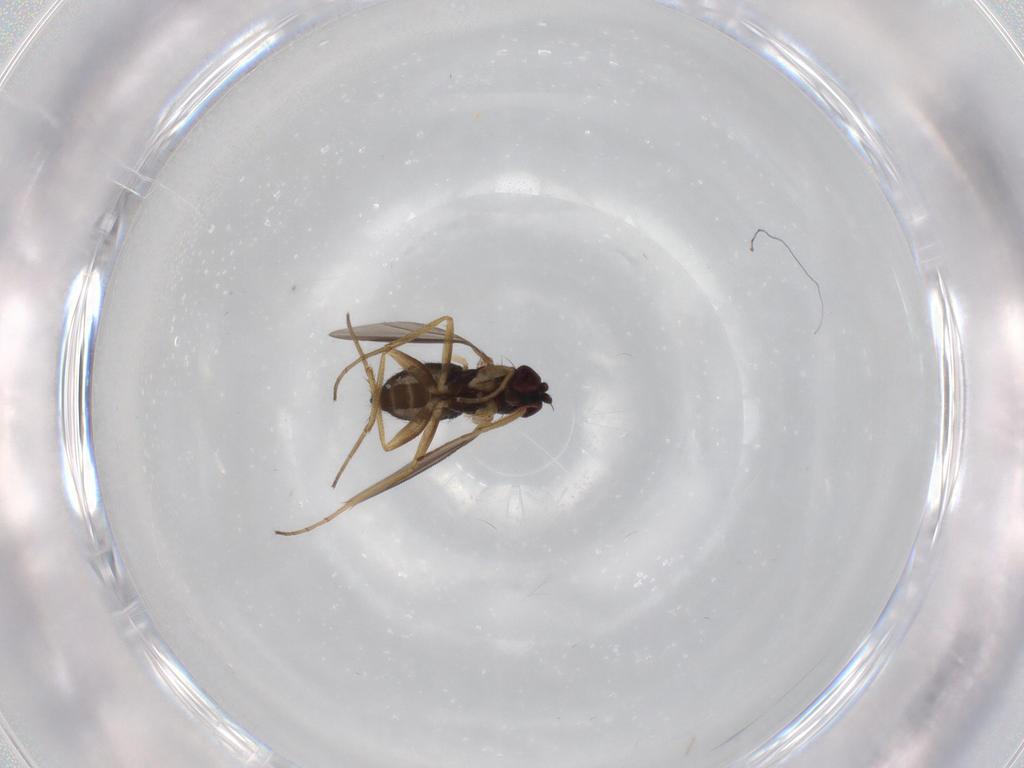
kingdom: Animalia
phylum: Arthropoda
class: Insecta
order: Diptera
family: Dolichopodidae
